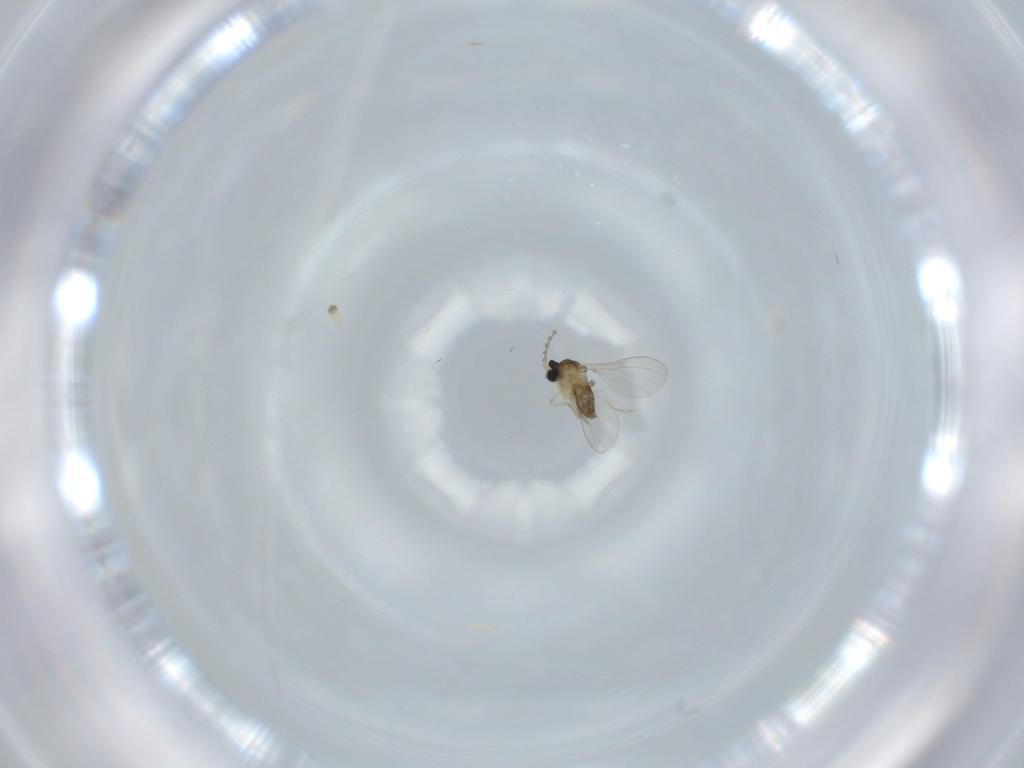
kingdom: Animalia
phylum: Arthropoda
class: Insecta
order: Diptera
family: Cecidomyiidae
